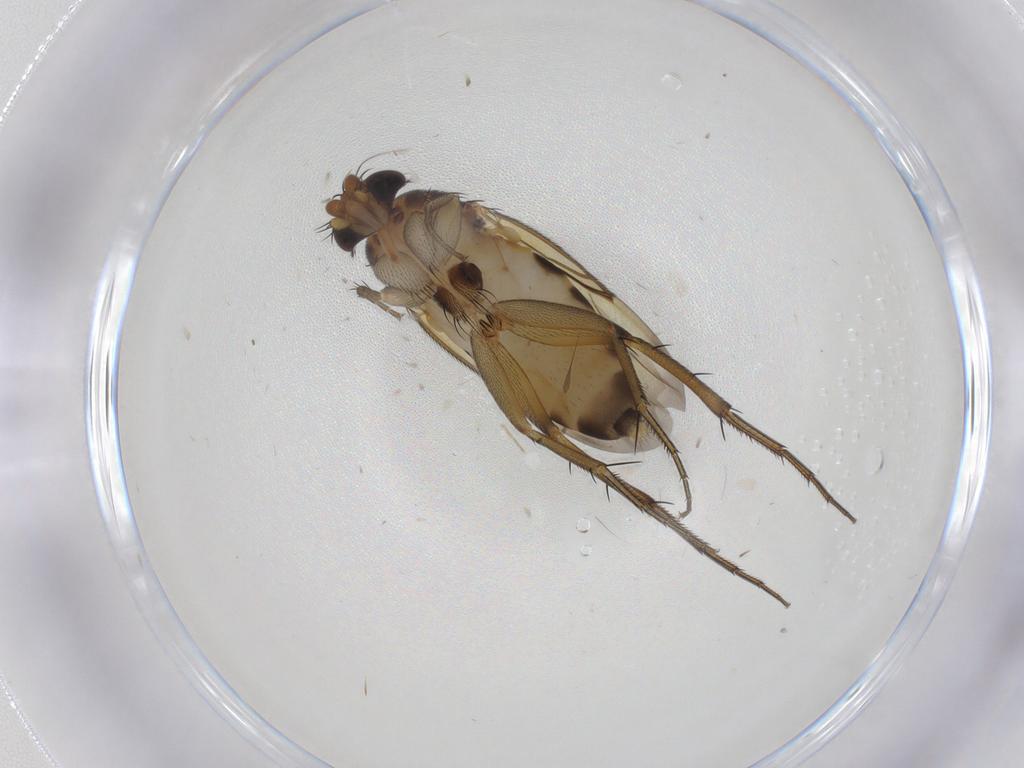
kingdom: Animalia
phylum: Arthropoda
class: Insecta
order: Diptera
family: Phoridae
